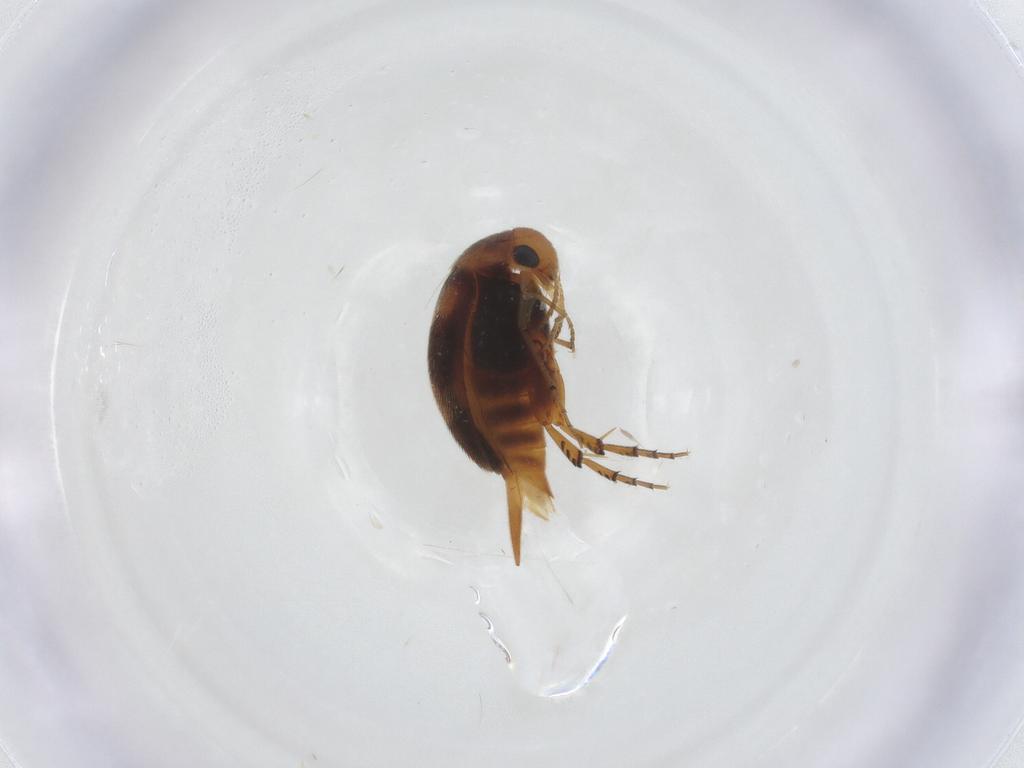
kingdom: Animalia
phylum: Arthropoda
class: Insecta
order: Coleoptera
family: Mordellidae
